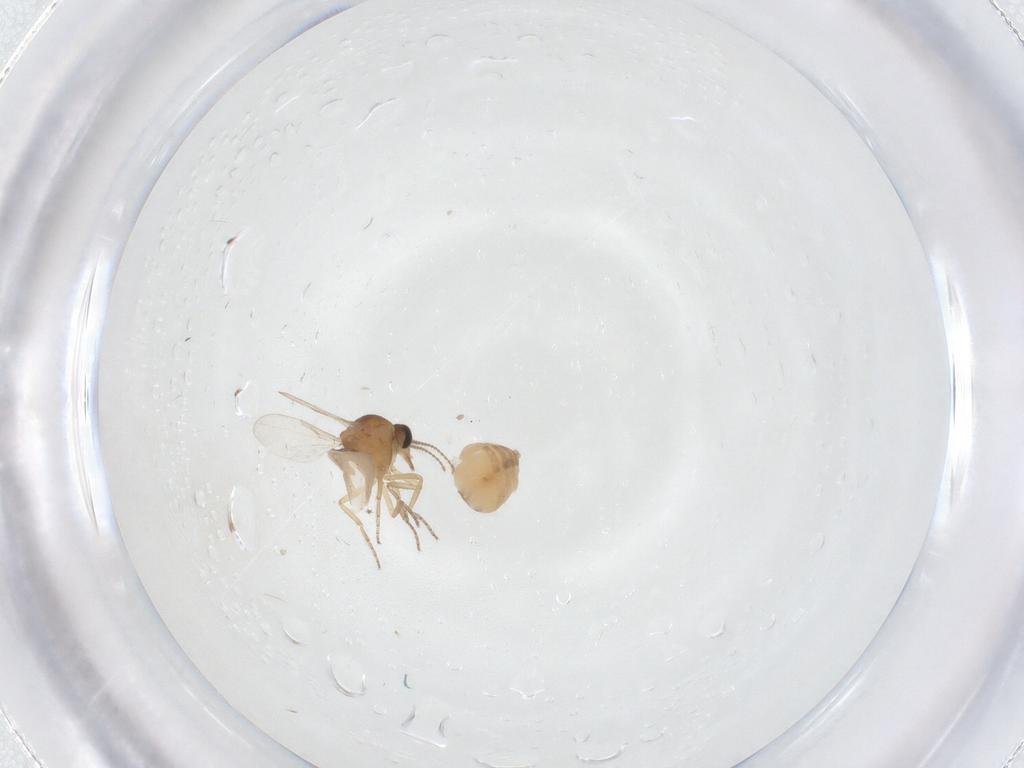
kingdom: Animalia
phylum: Arthropoda
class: Insecta
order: Diptera
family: Ceratopogonidae
